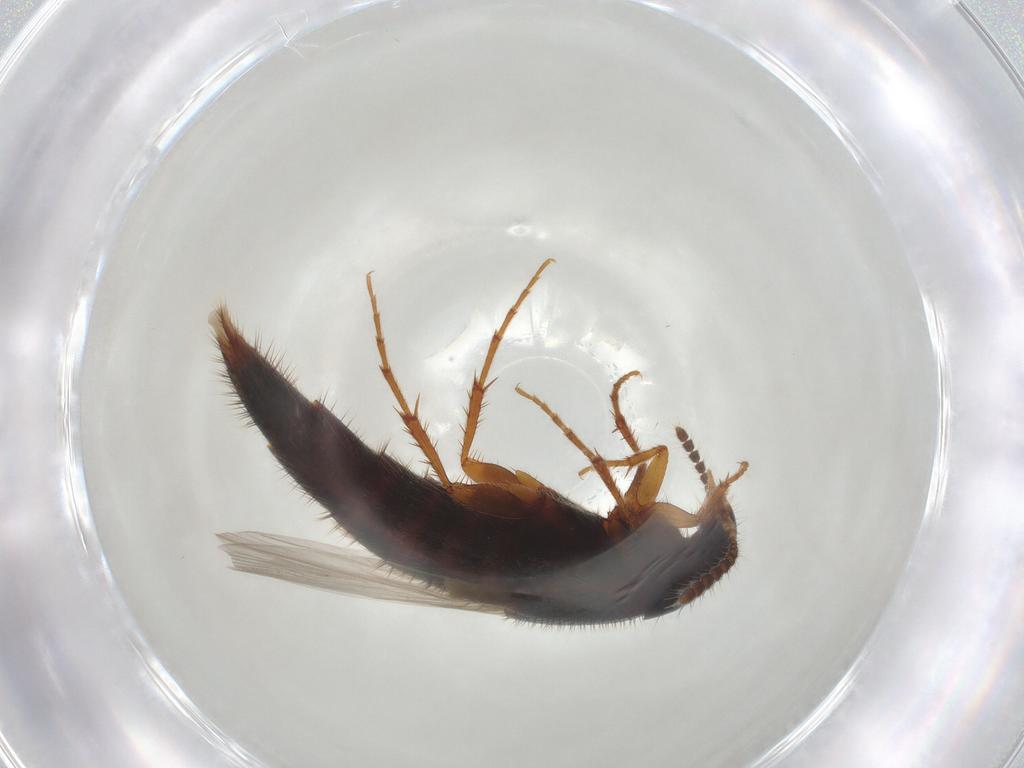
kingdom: Animalia
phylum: Arthropoda
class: Insecta
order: Coleoptera
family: Staphylinidae
